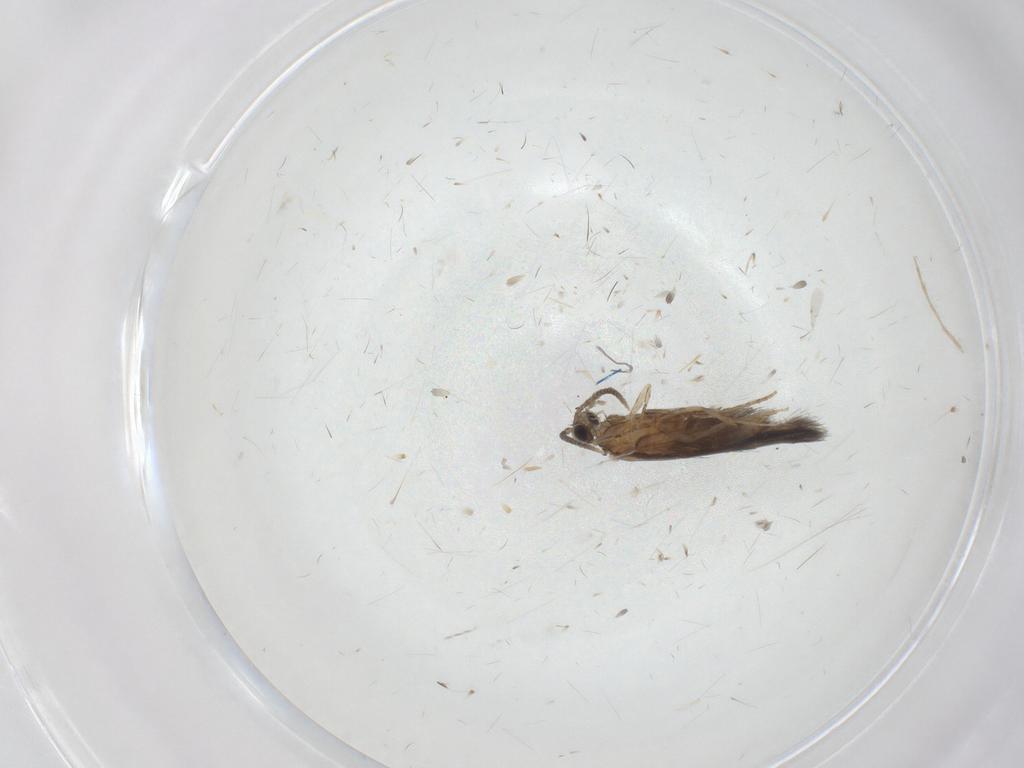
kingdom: Animalia
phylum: Arthropoda
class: Insecta
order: Trichoptera
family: Hydroptilidae
